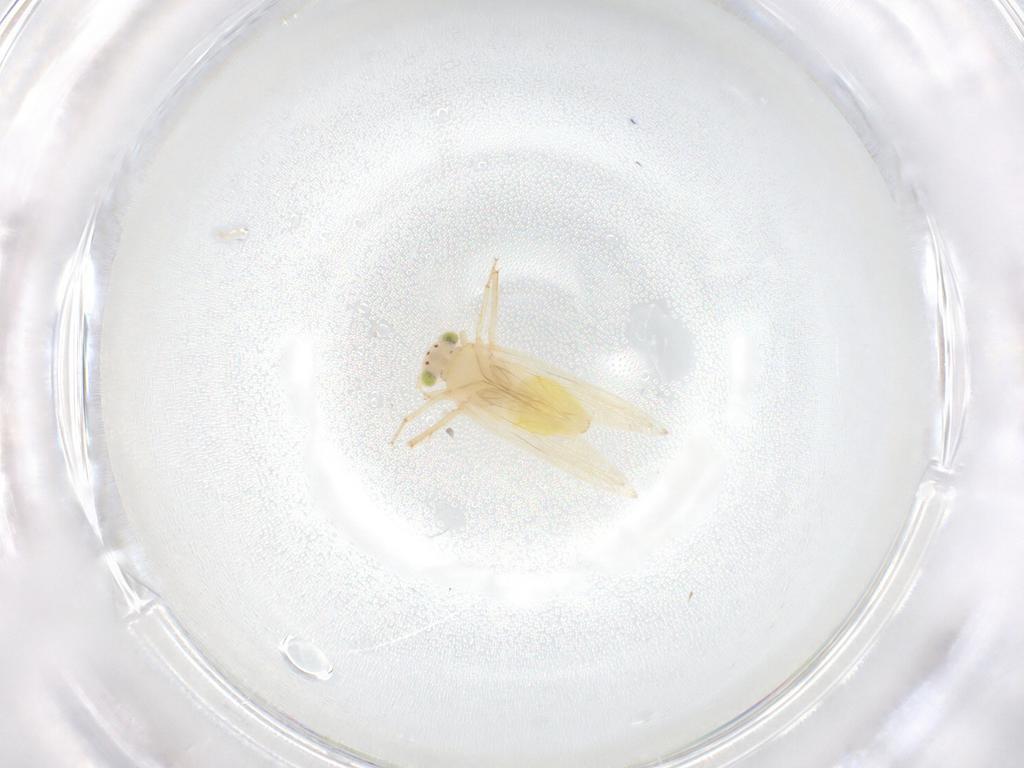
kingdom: Animalia
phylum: Arthropoda
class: Insecta
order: Psocodea
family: Lepidopsocidae
